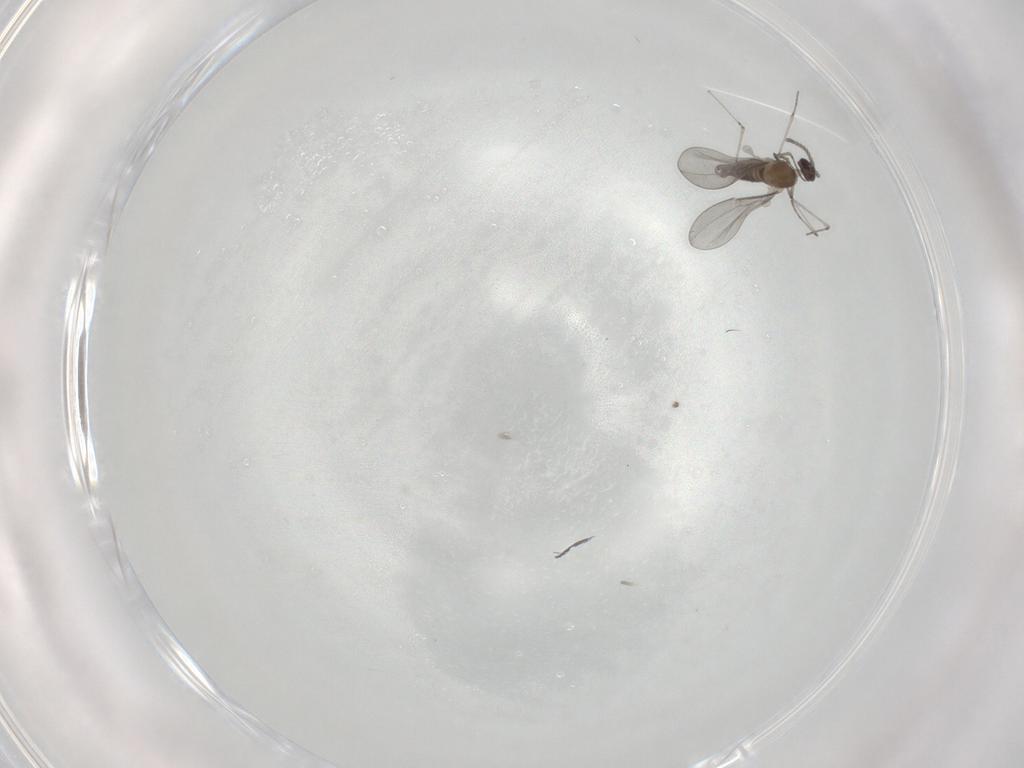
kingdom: Animalia
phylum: Arthropoda
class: Insecta
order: Diptera
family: Cecidomyiidae
